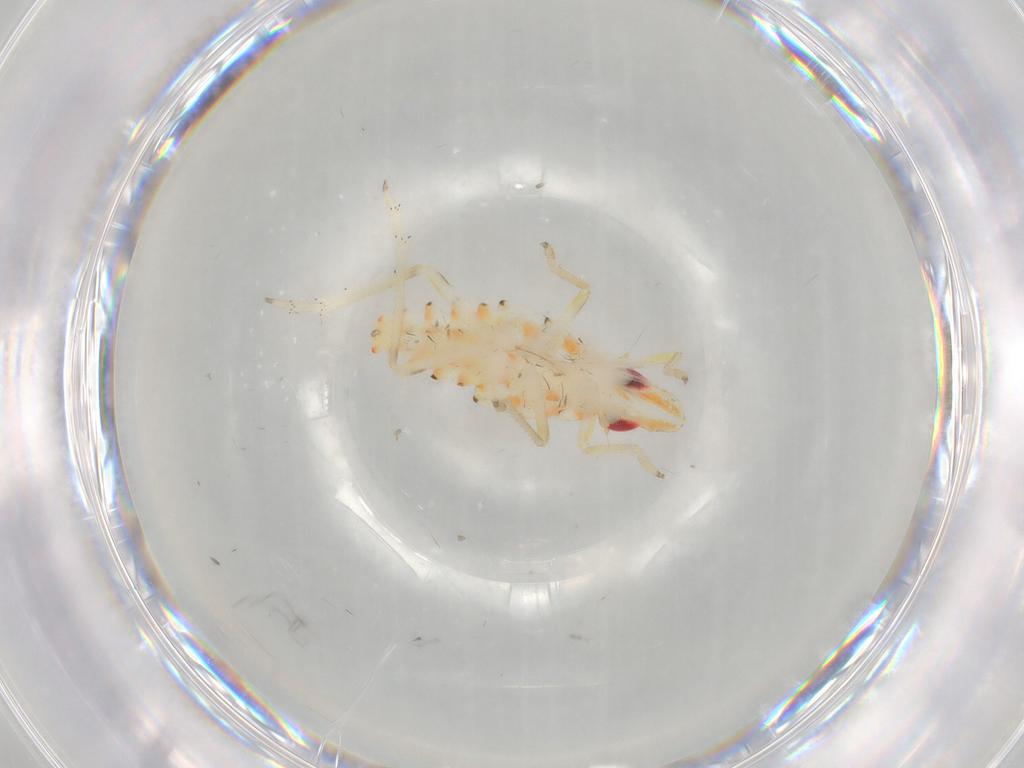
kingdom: Animalia
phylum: Arthropoda
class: Insecta
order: Hemiptera
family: Tropiduchidae
